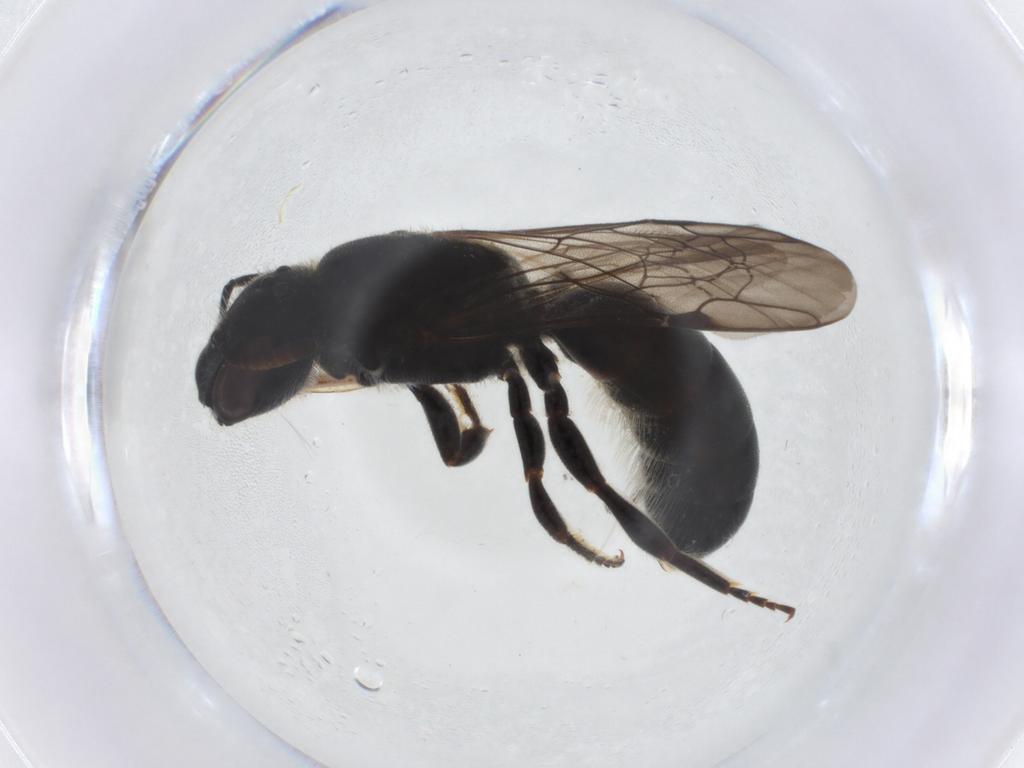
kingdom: Animalia
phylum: Arthropoda
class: Insecta
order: Hymenoptera
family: Megachilidae
